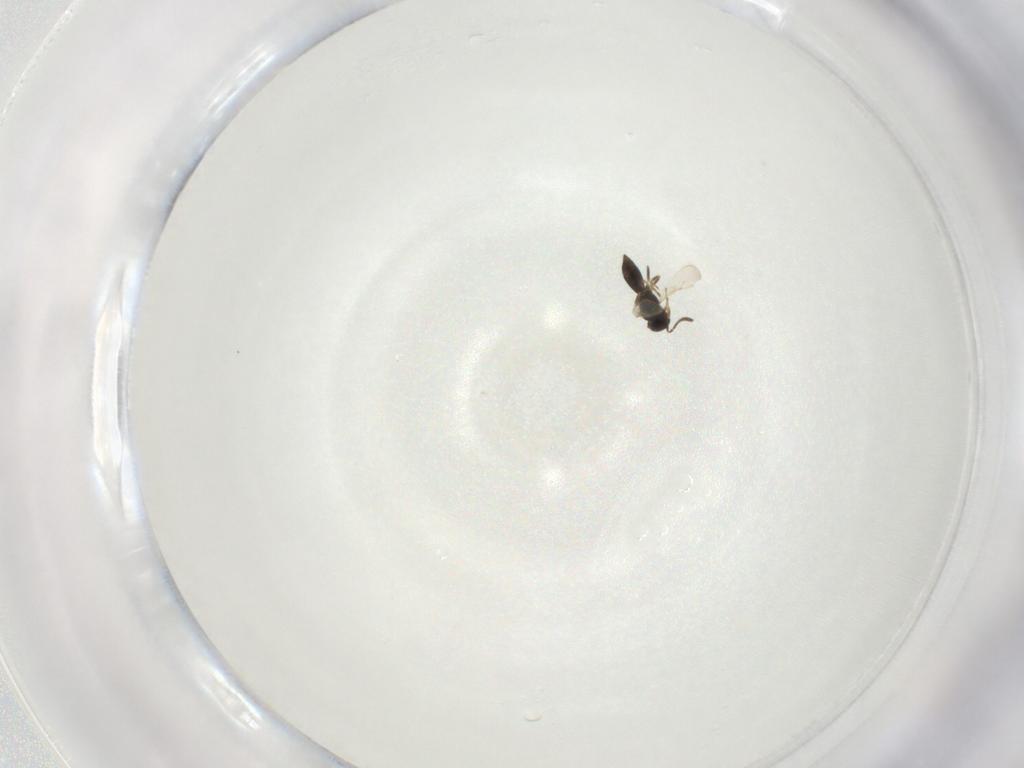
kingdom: Animalia
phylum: Arthropoda
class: Insecta
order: Hymenoptera
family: Scelionidae
